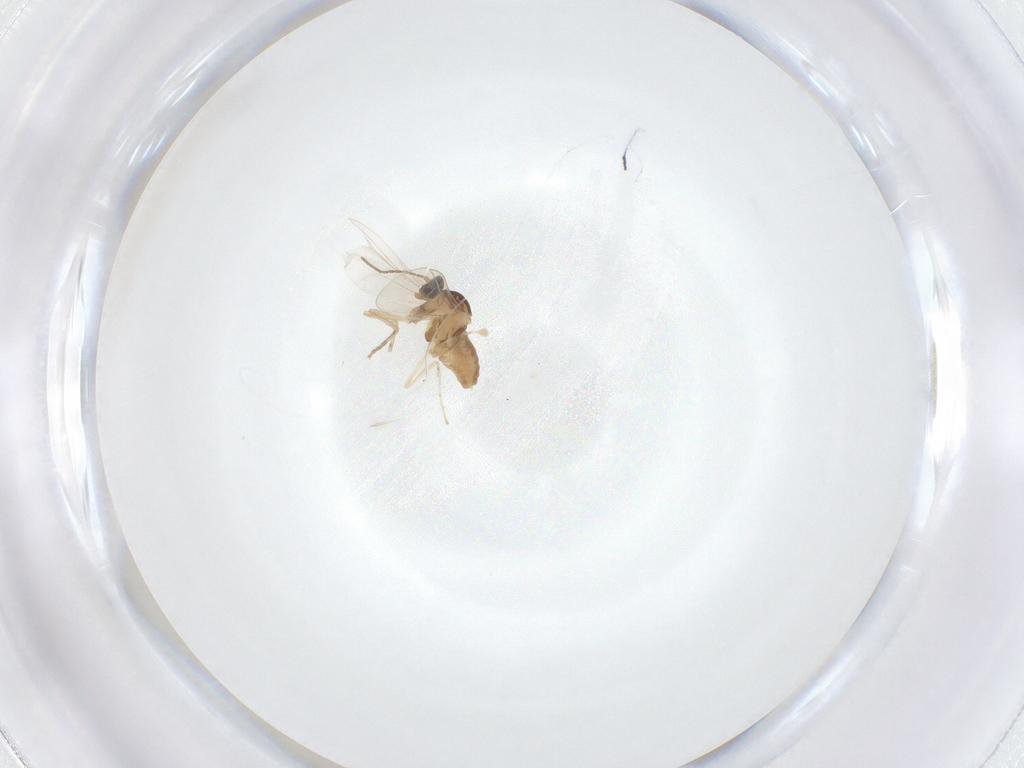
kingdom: Animalia
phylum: Arthropoda
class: Insecta
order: Diptera
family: Cecidomyiidae
